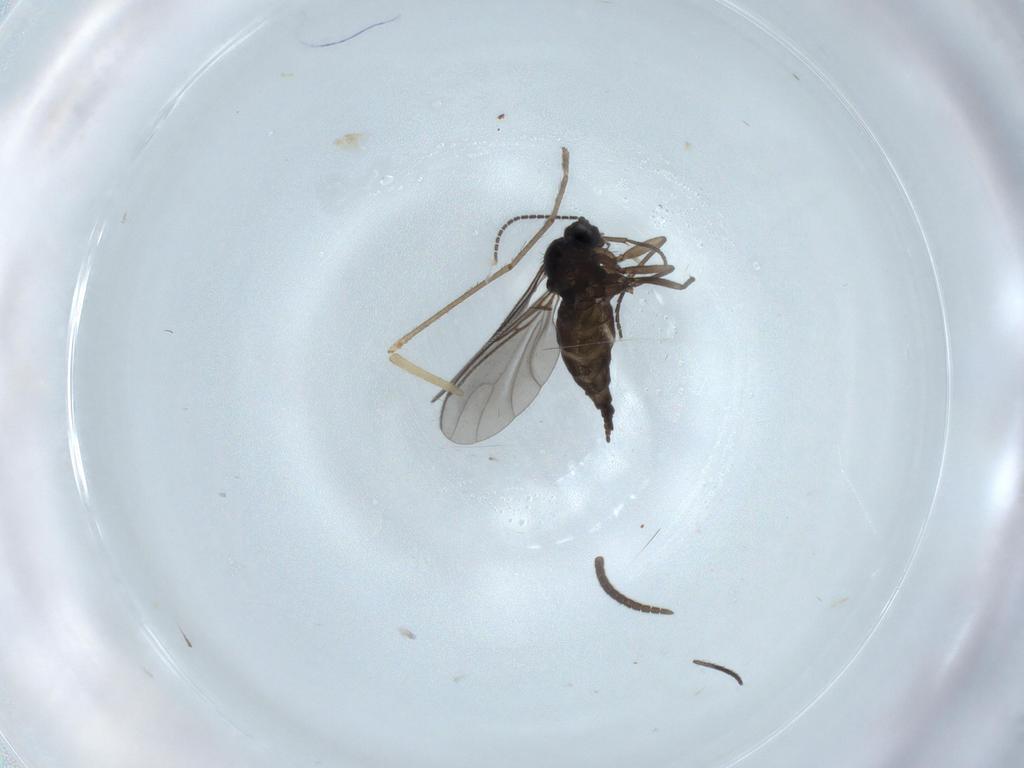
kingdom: Animalia
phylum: Arthropoda
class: Insecta
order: Diptera
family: Sciaridae
